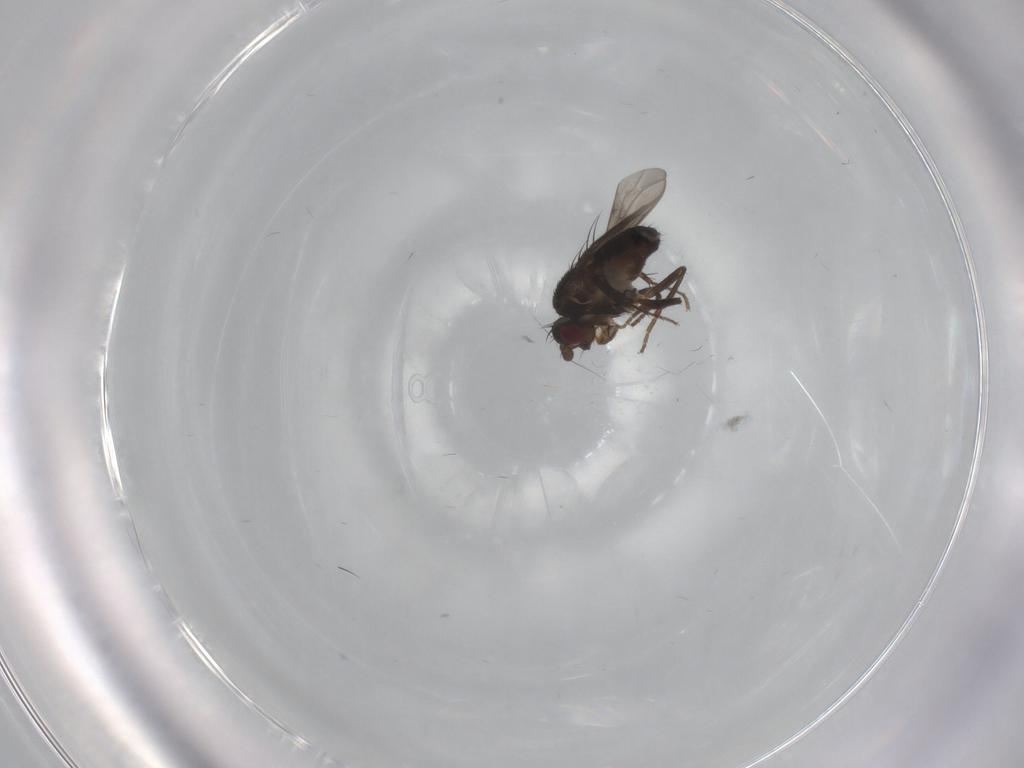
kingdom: Animalia
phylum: Arthropoda
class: Insecta
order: Diptera
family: Sphaeroceridae
